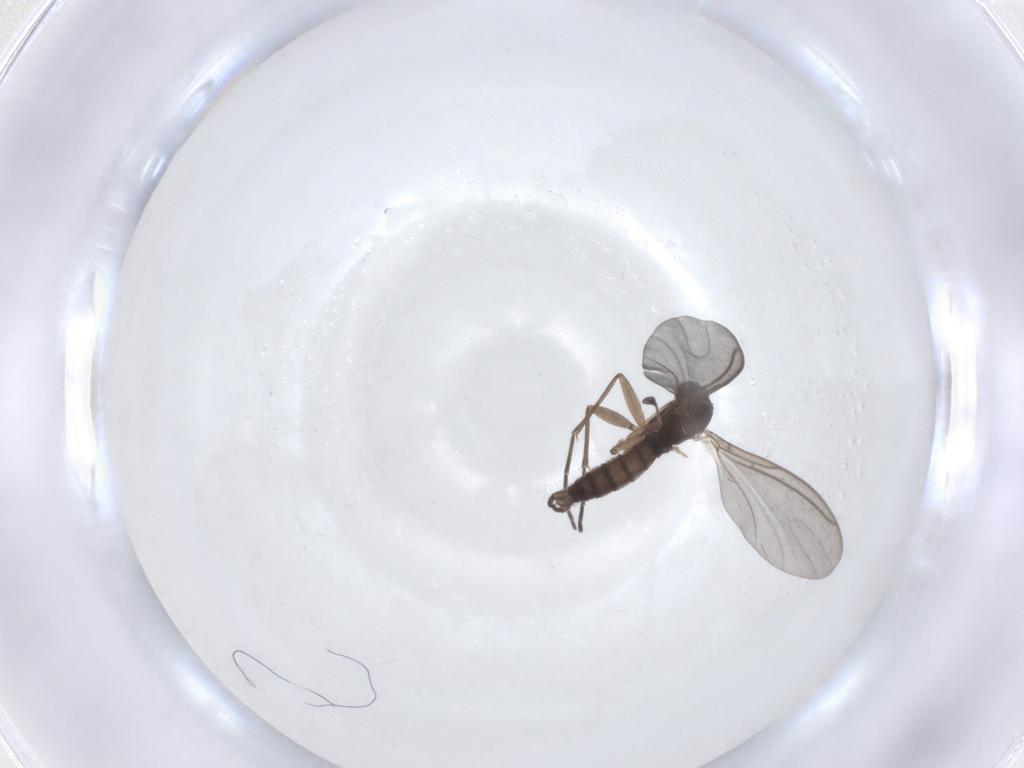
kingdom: Animalia
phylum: Arthropoda
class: Insecta
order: Diptera
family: Sciaridae
